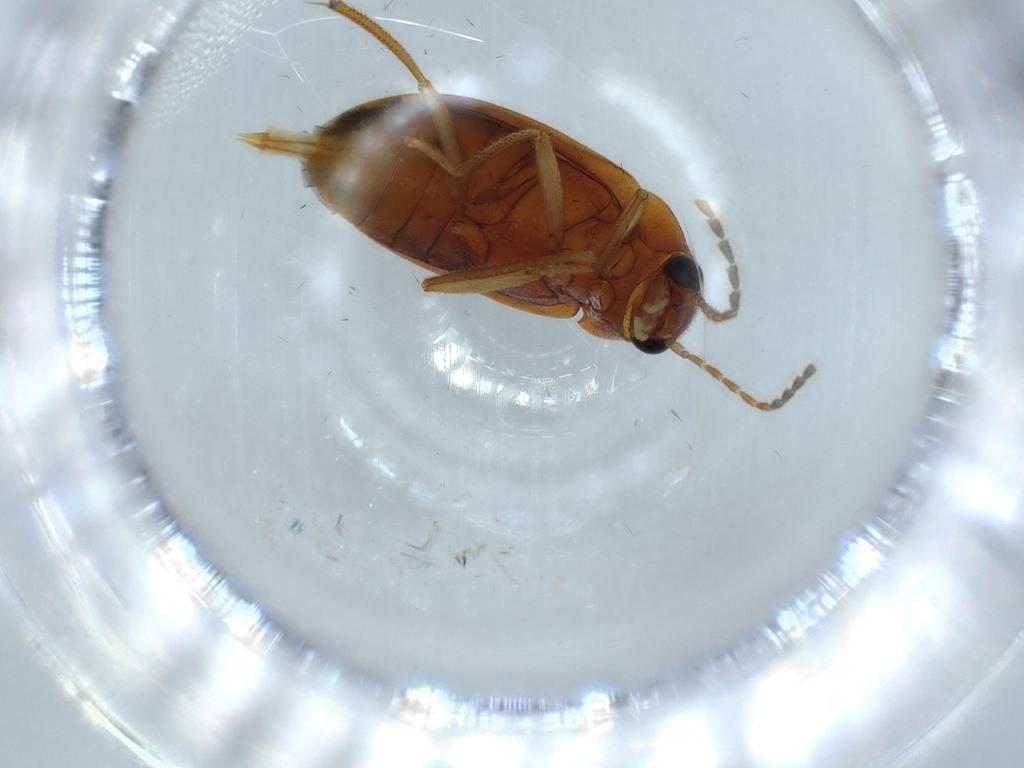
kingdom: Animalia
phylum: Arthropoda
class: Insecta
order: Coleoptera
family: Ptilodactylidae
